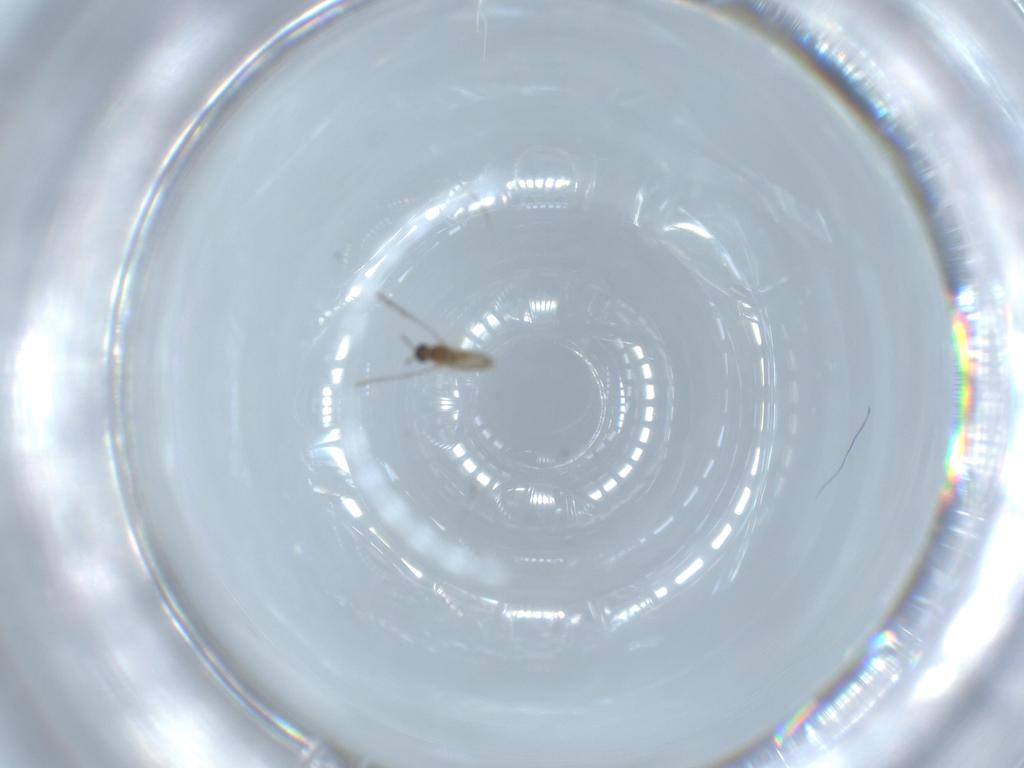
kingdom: Animalia
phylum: Arthropoda
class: Insecta
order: Diptera
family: Cecidomyiidae
